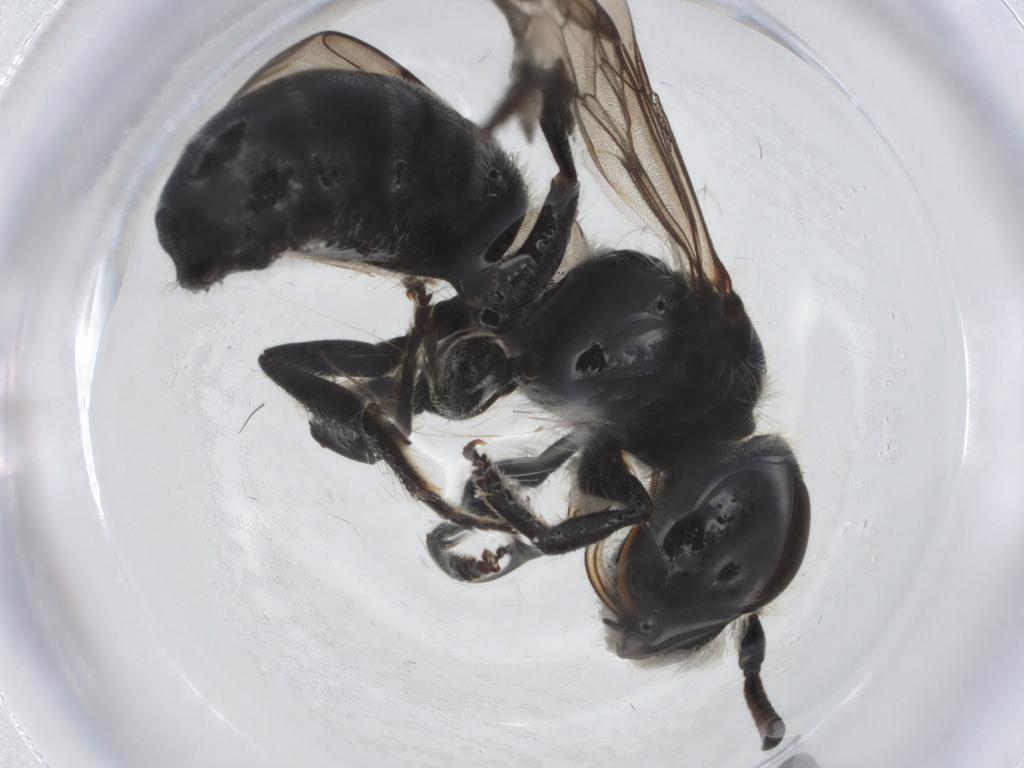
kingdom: Animalia
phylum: Arthropoda
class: Insecta
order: Hymenoptera
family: Megachilidae
